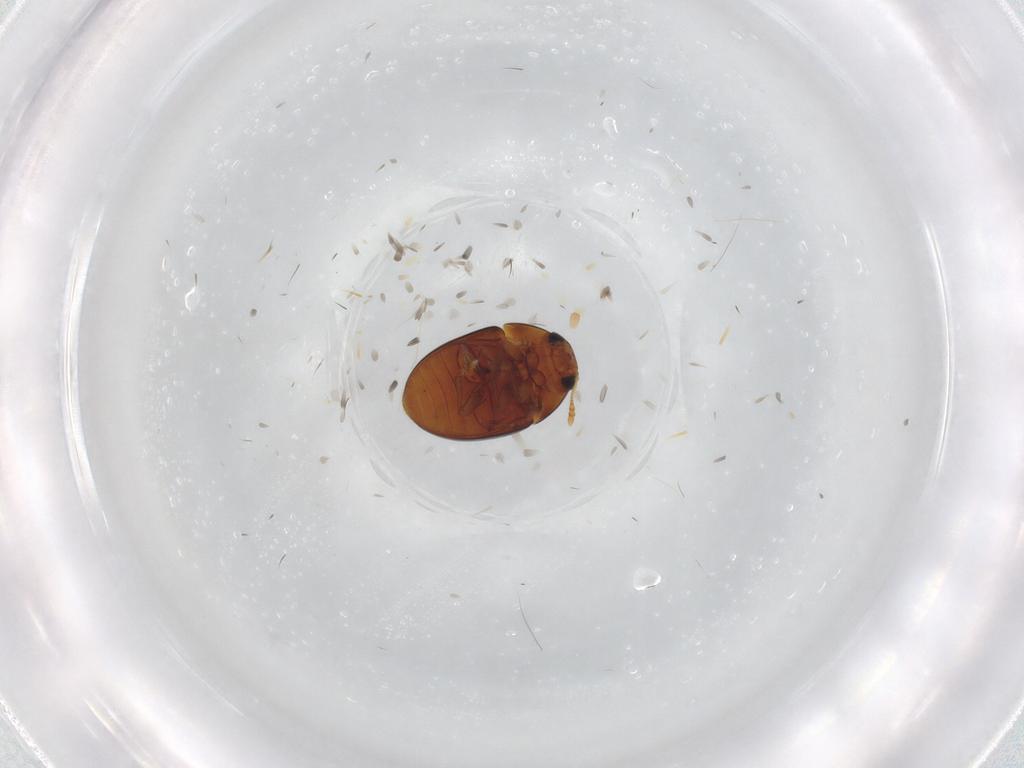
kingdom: Animalia
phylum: Arthropoda
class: Insecta
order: Coleoptera
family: Phalacridae
